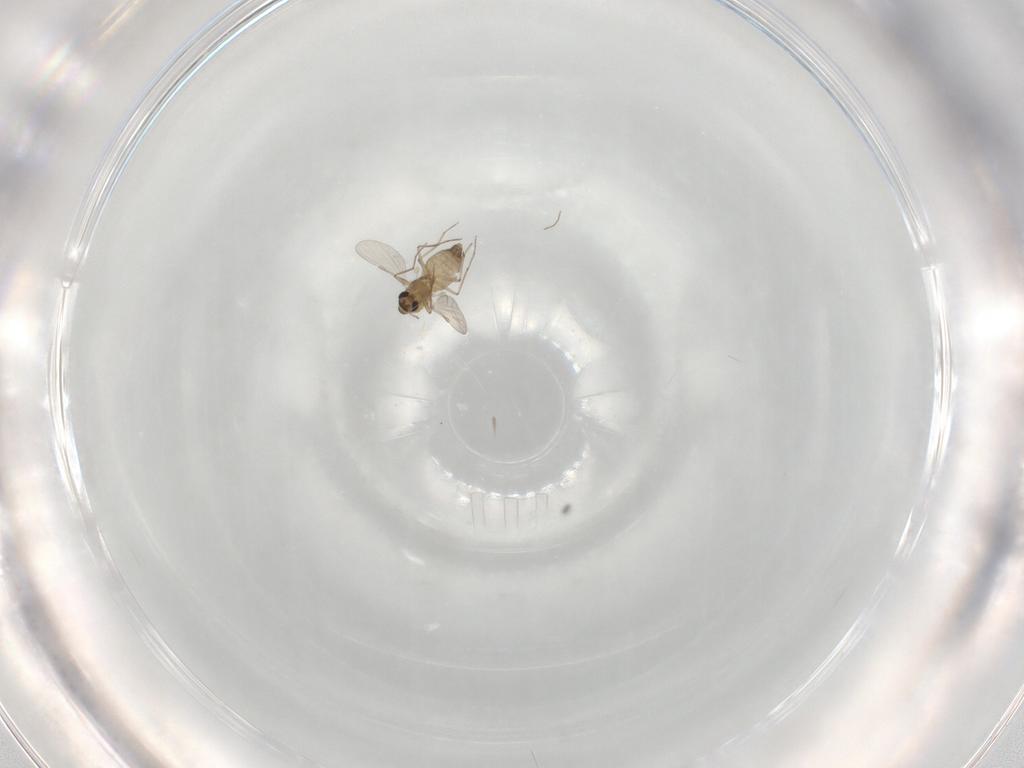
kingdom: Animalia
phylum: Arthropoda
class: Insecta
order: Diptera
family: Chironomidae
